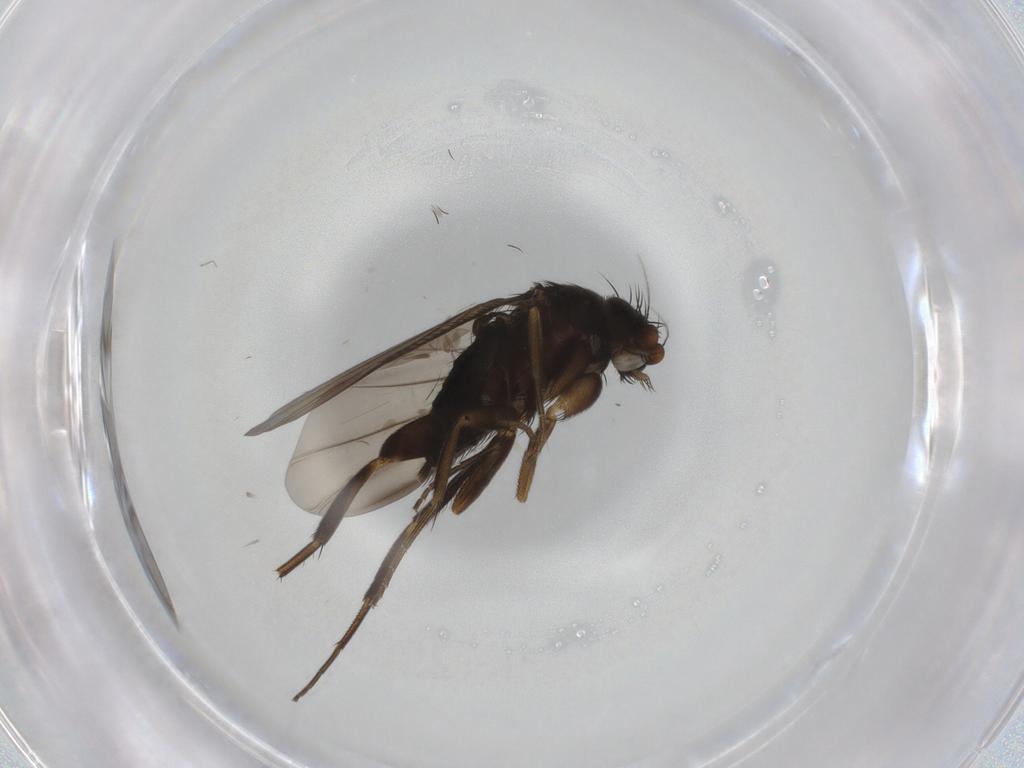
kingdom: Animalia
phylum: Arthropoda
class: Insecta
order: Diptera
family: Phoridae
